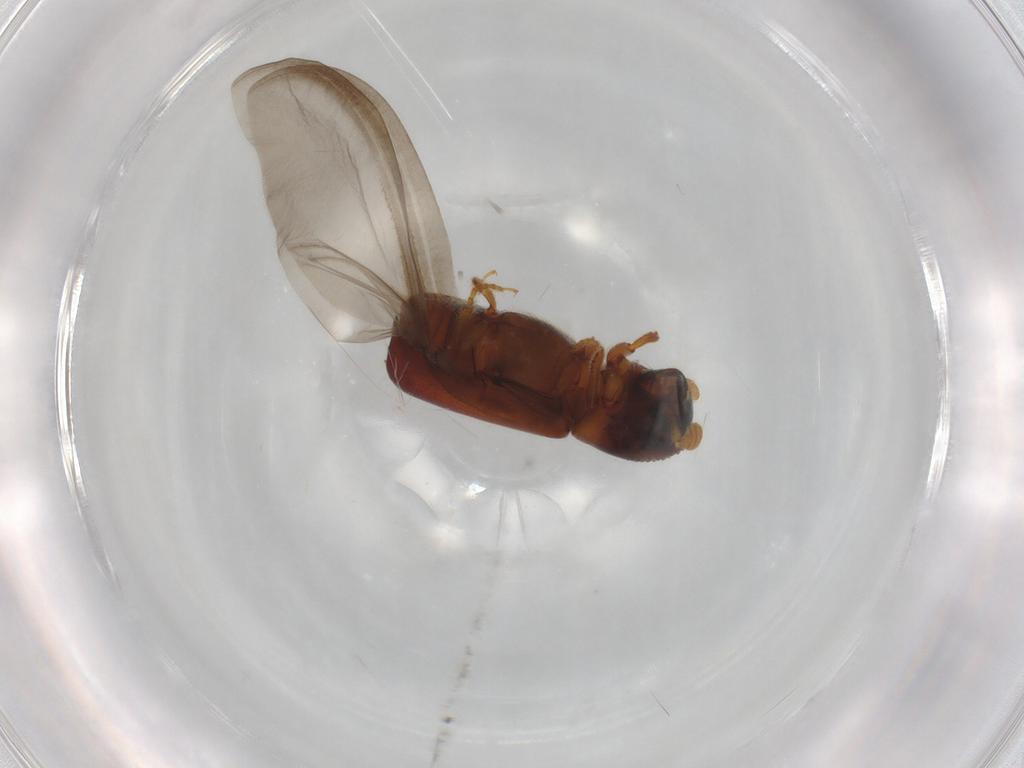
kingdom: Animalia
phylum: Arthropoda
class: Insecta
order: Coleoptera
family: Curculionidae
